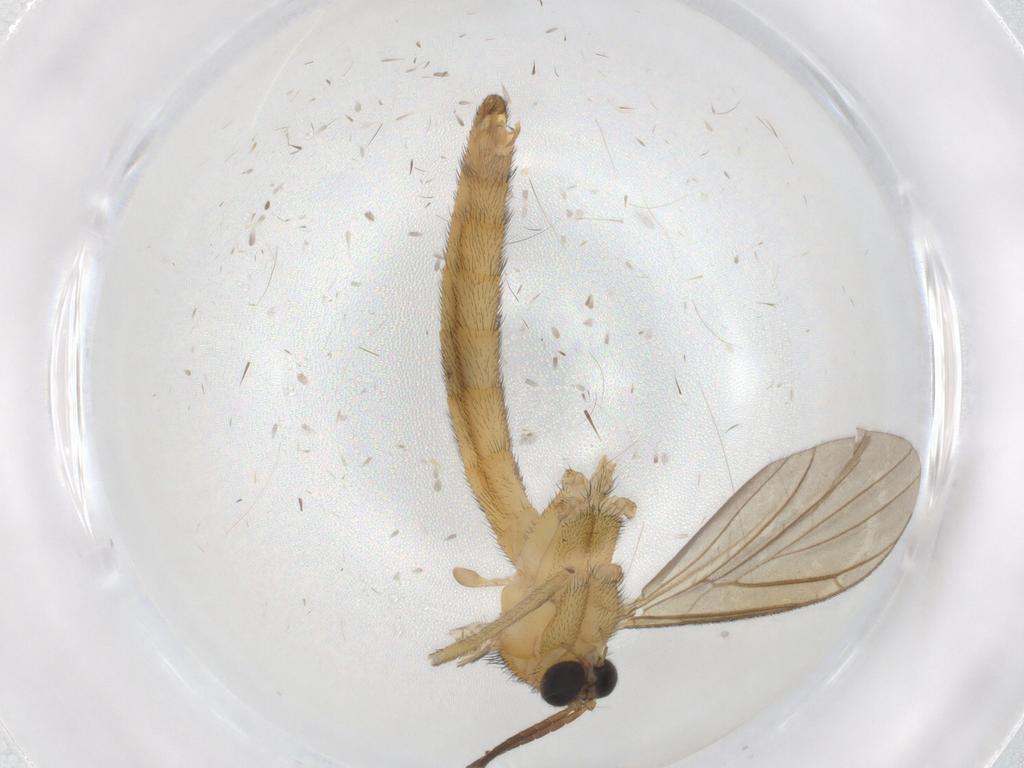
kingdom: Animalia
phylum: Arthropoda
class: Insecta
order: Diptera
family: Chironomidae
